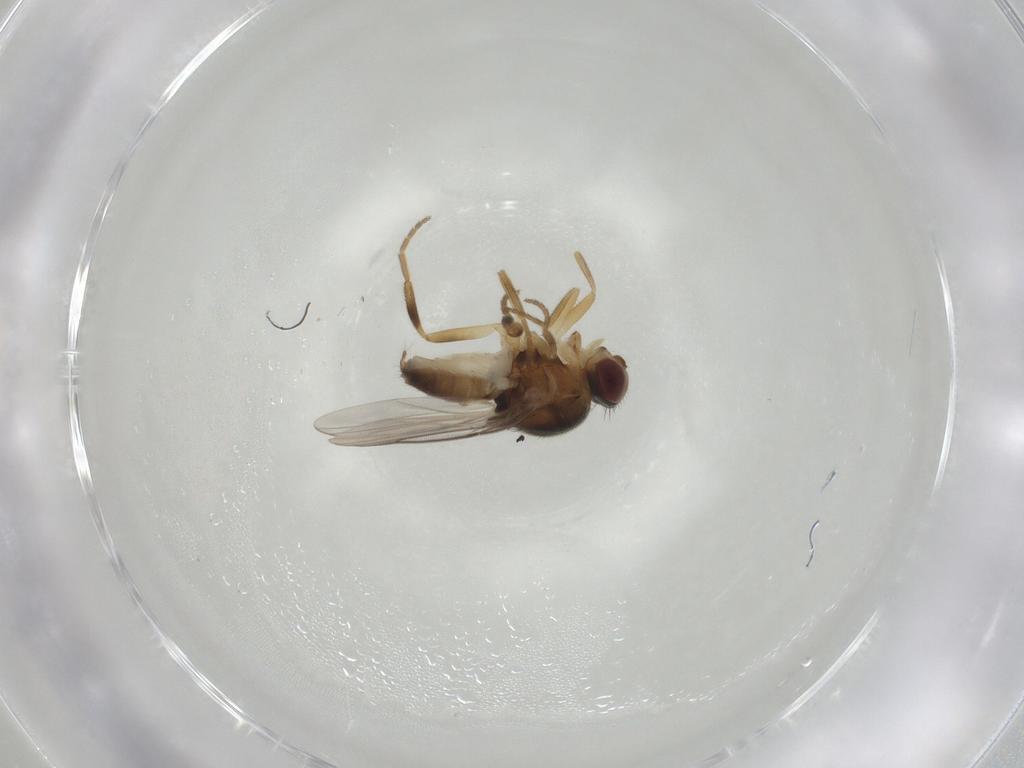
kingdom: Animalia
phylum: Arthropoda
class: Insecta
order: Diptera
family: Chloropidae
